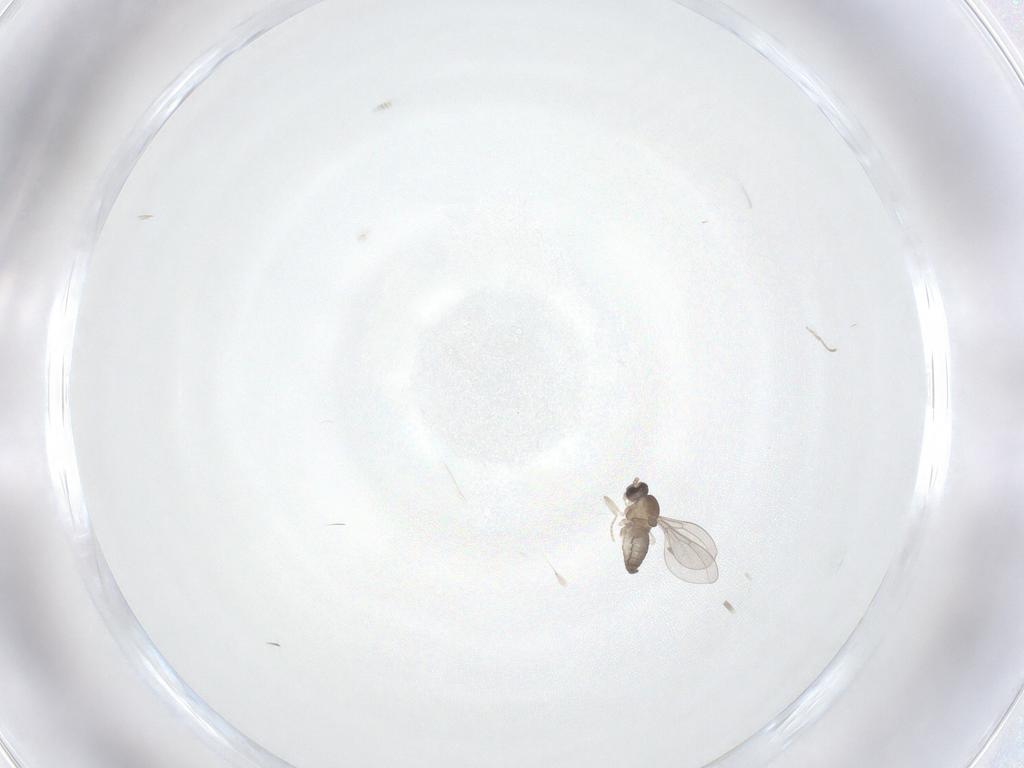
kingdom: Animalia
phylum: Arthropoda
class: Insecta
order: Diptera
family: Cecidomyiidae
